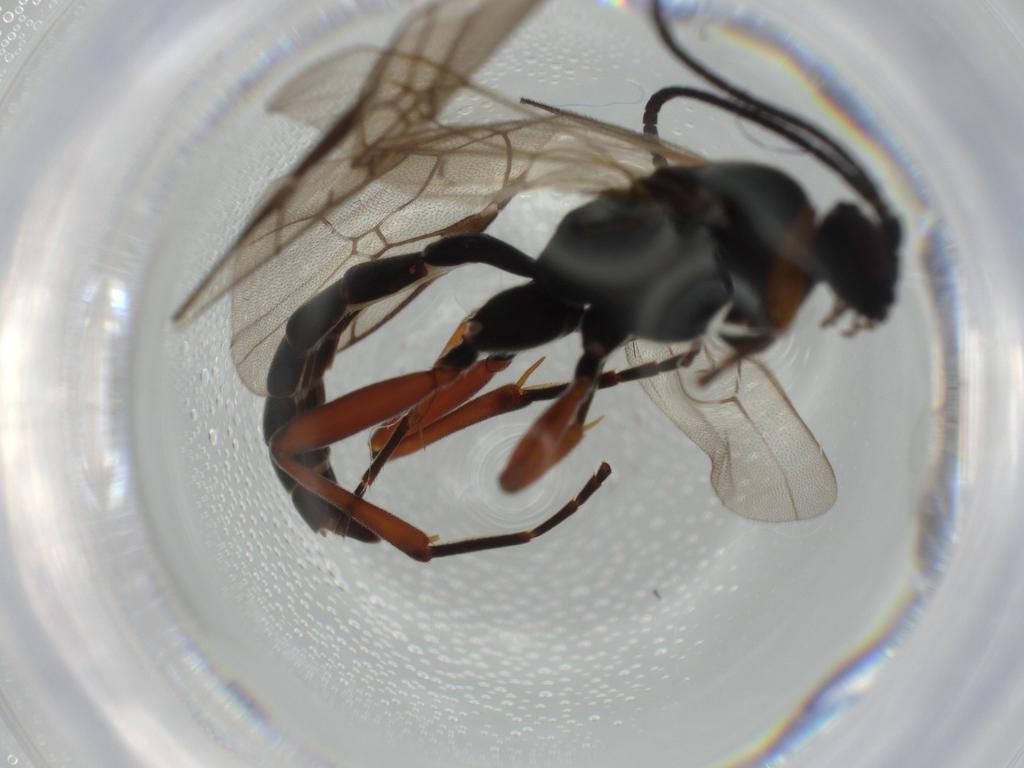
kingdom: Animalia
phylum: Arthropoda
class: Insecta
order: Hymenoptera
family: Ichneumonidae
